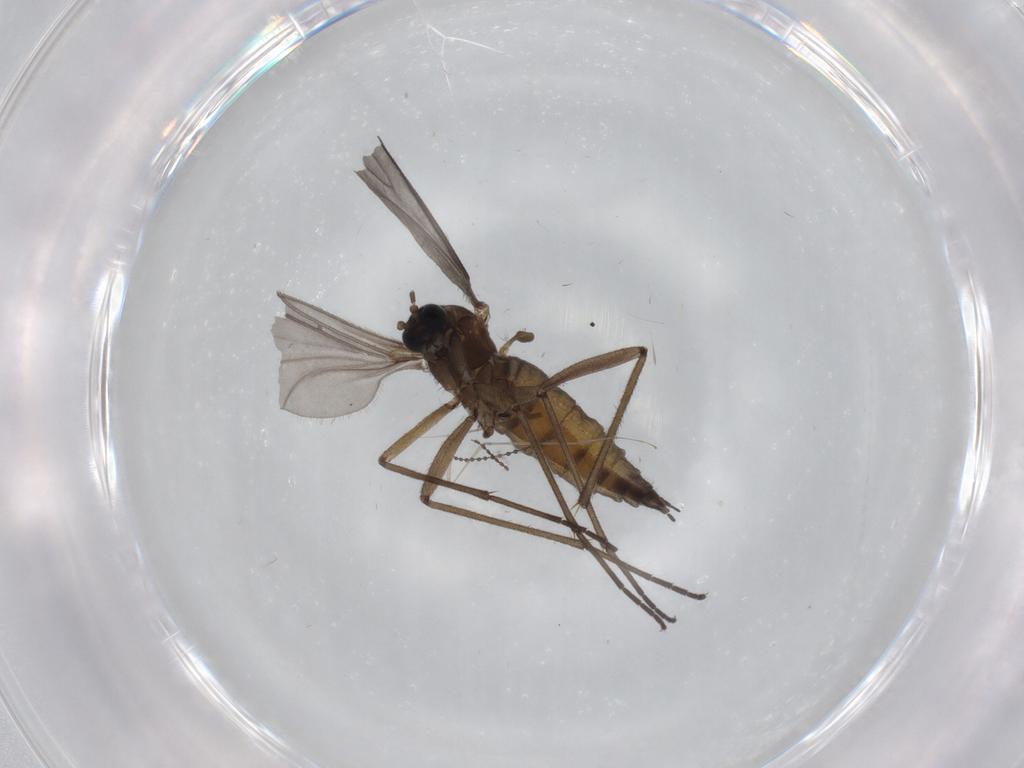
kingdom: Animalia
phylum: Arthropoda
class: Insecta
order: Diptera
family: Sciaridae
